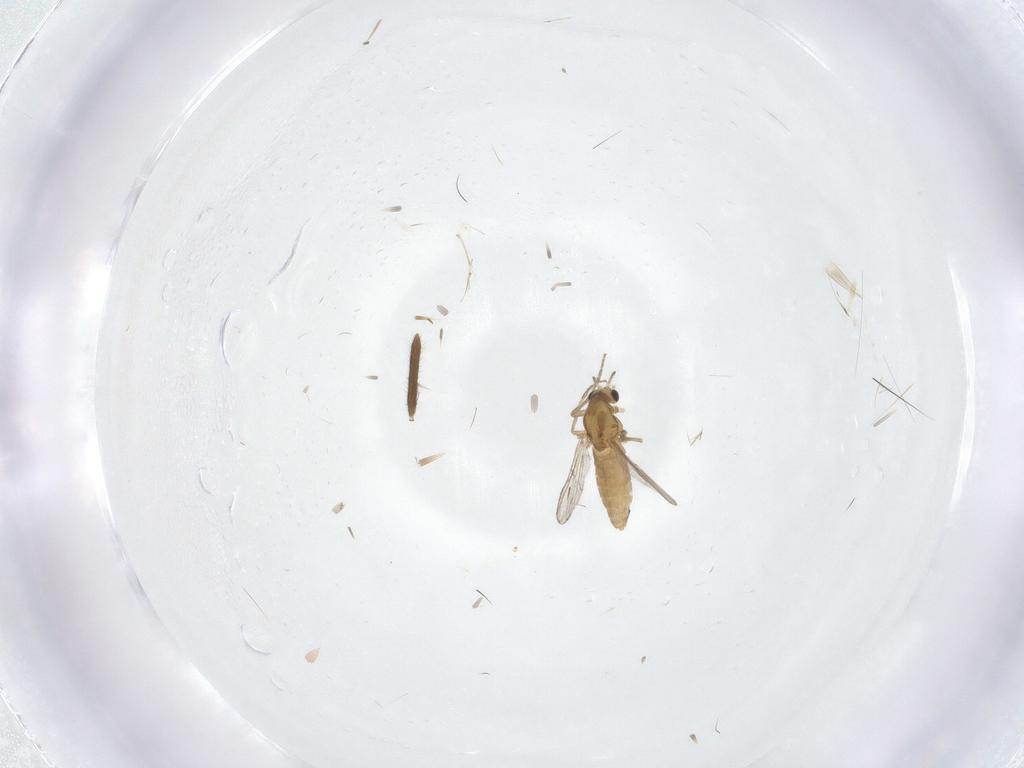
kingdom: Animalia
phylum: Arthropoda
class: Insecta
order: Diptera
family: Chironomidae
